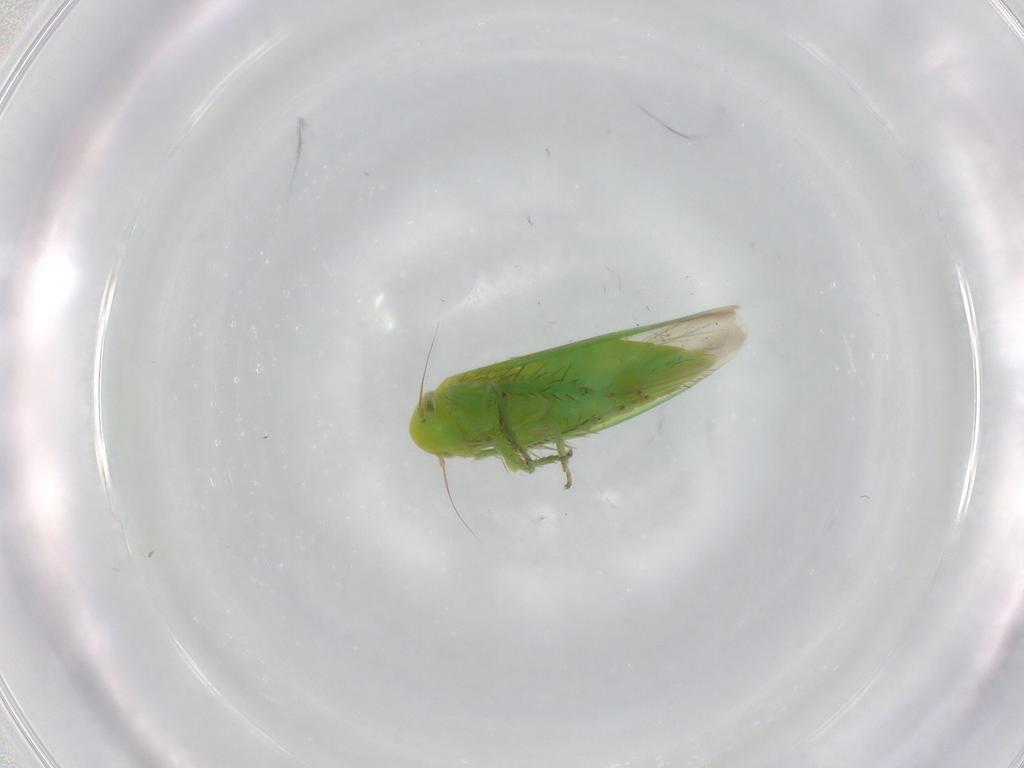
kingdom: Animalia
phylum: Arthropoda
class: Insecta
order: Hemiptera
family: Cicadellidae
